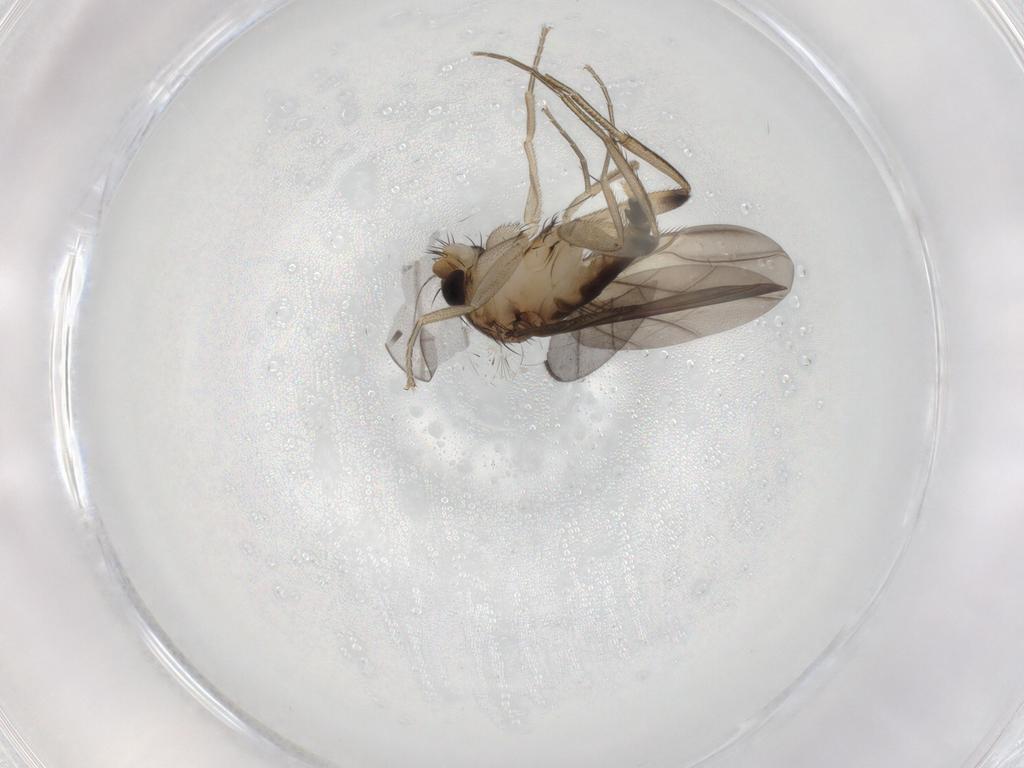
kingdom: Animalia
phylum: Arthropoda
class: Insecta
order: Diptera
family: Phoridae
